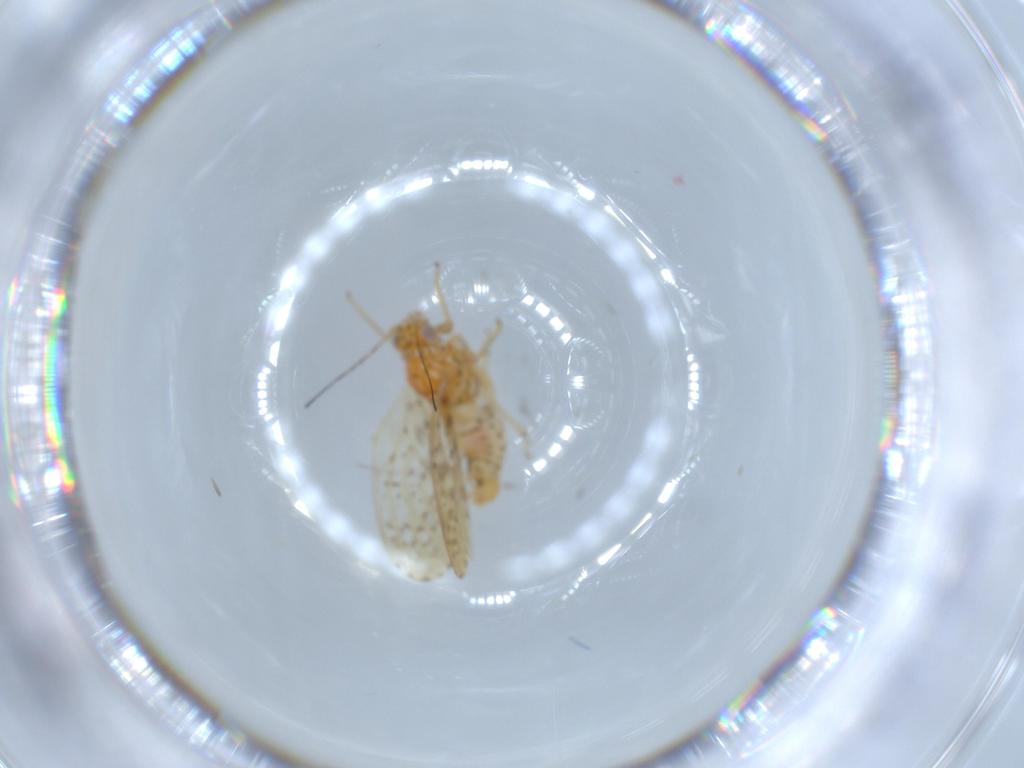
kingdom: Animalia
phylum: Arthropoda
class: Insecta
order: Hemiptera
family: Psyllidae
